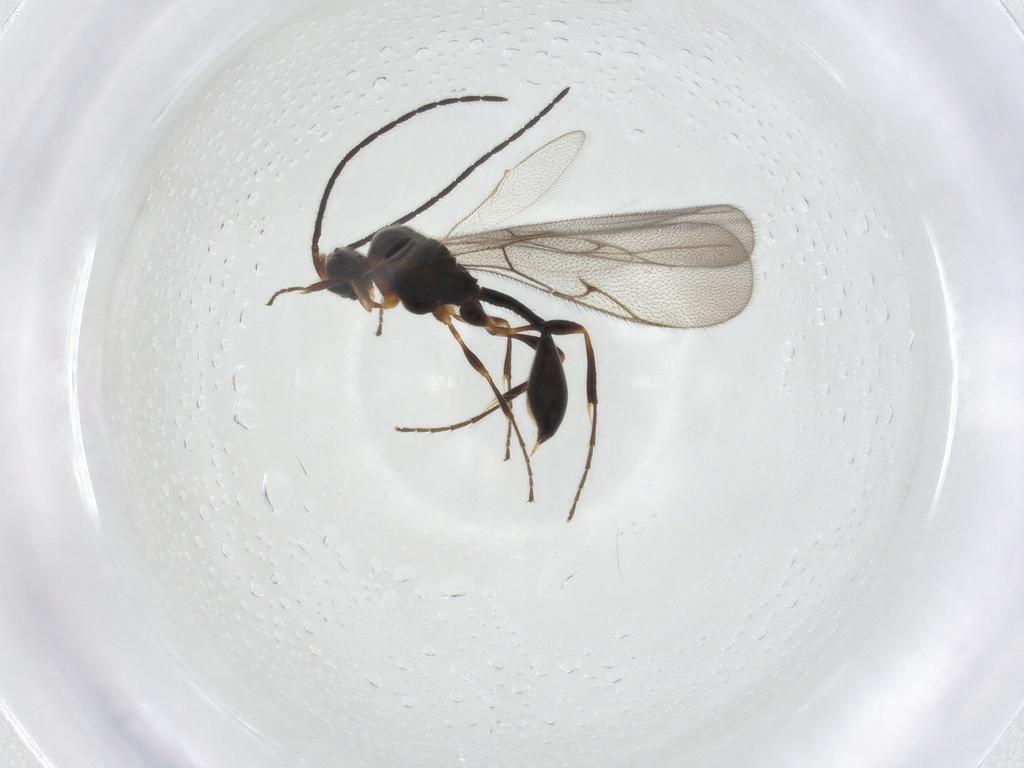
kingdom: Animalia
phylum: Arthropoda
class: Insecta
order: Hymenoptera
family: Diapriidae
